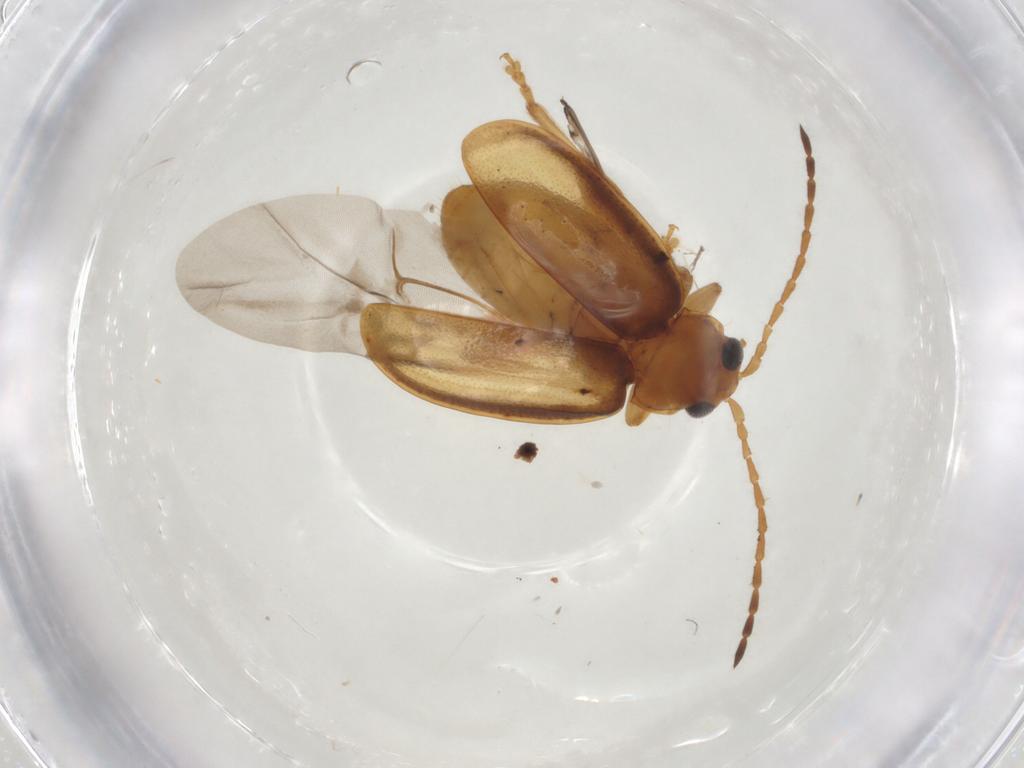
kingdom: Animalia
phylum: Arthropoda
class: Insecta
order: Coleoptera
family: Chrysomelidae
